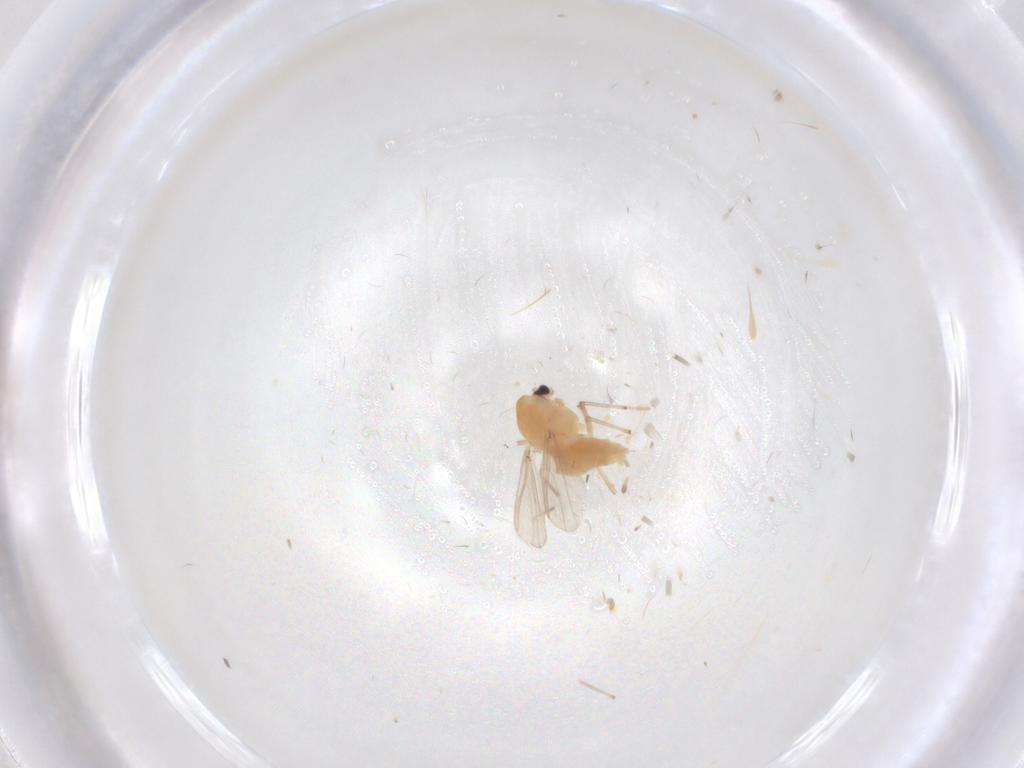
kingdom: Animalia
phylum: Arthropoda
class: Insecta
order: Diptera
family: Chironomidae
